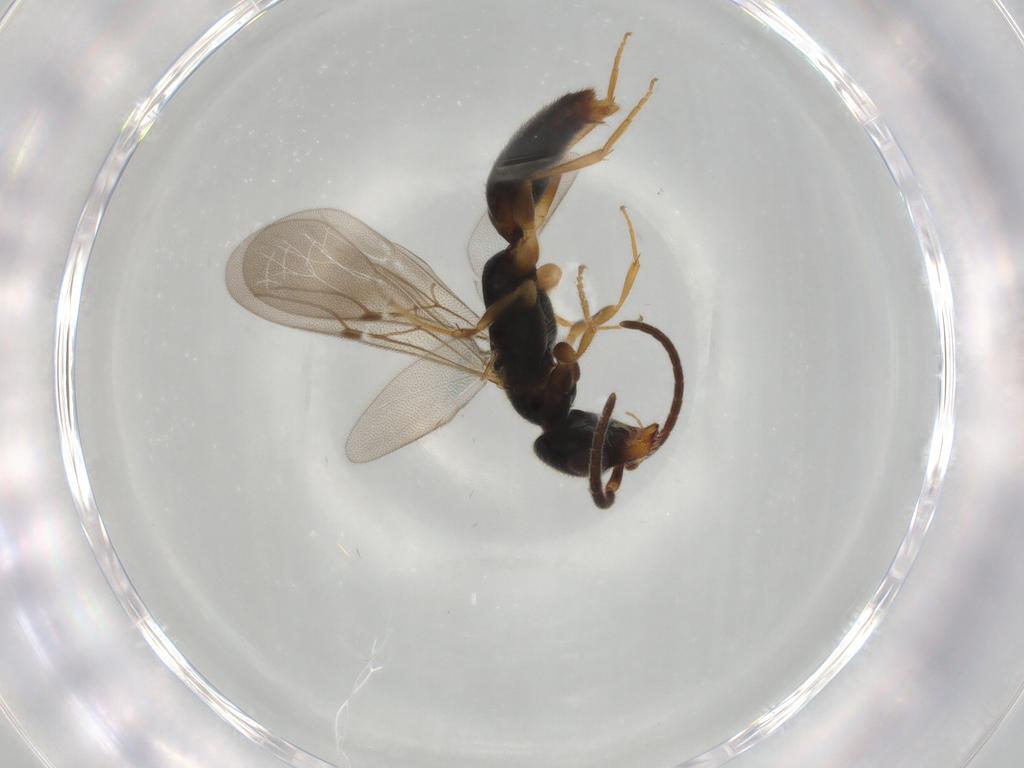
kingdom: Animalia
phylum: Arthropoda
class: Insecta
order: Hymenoptera
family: Bethylidae
